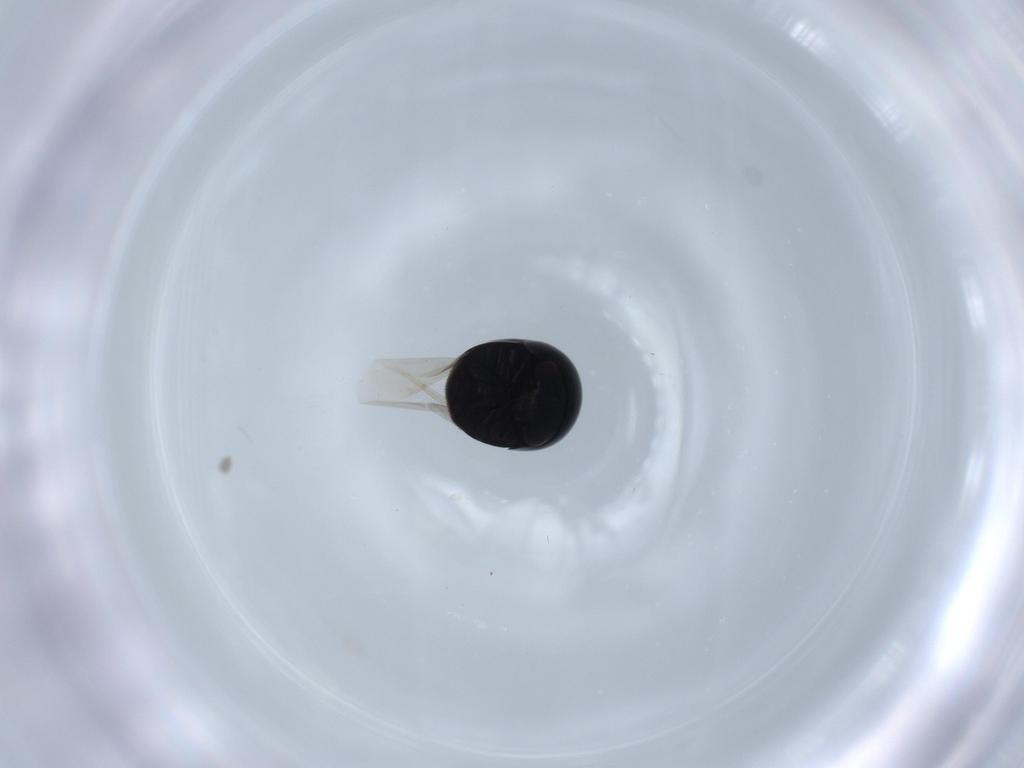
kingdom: Animalia
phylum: Arthropoda
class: Insecta
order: Coleoptera
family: Cybocephalidae
